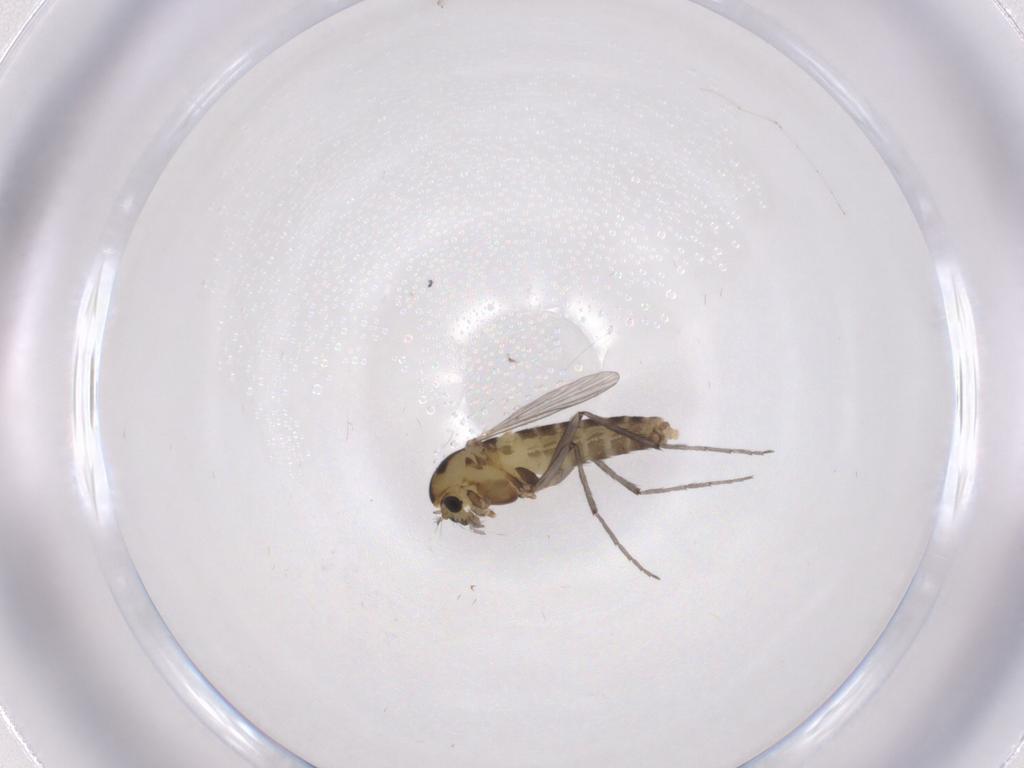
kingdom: Animalia
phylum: Arthropoda
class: Insecta
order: Diptera
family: Chironomidae
